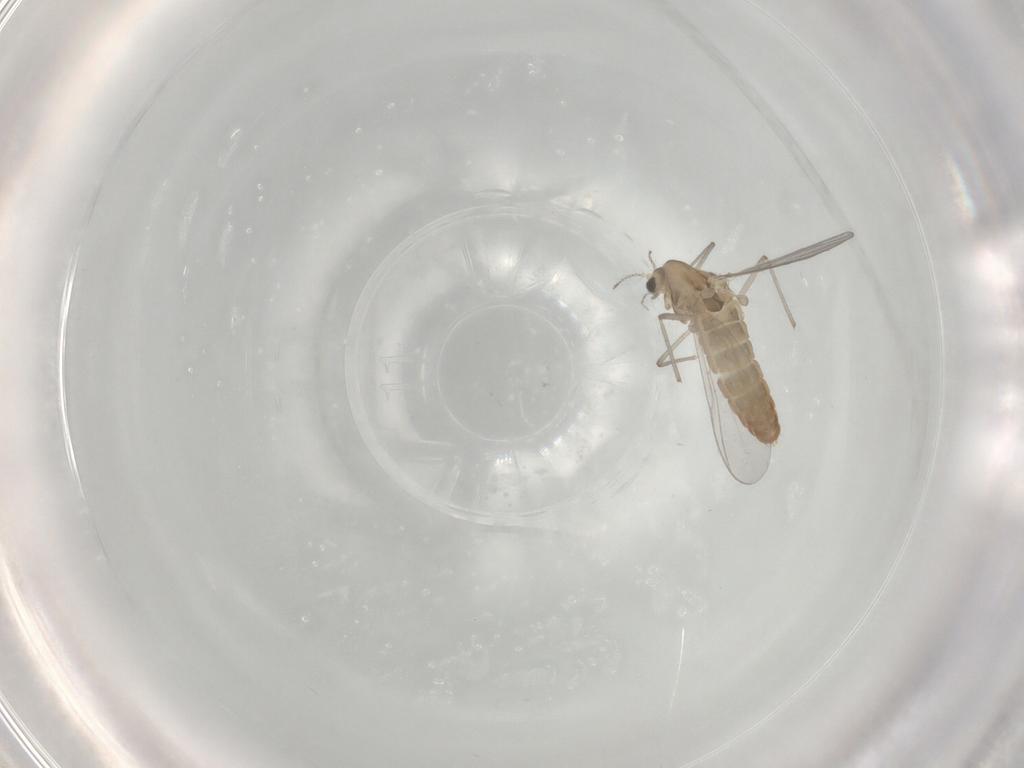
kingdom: Animalia
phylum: Arthropoda
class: Insecta
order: Diptera
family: Chironomidae
